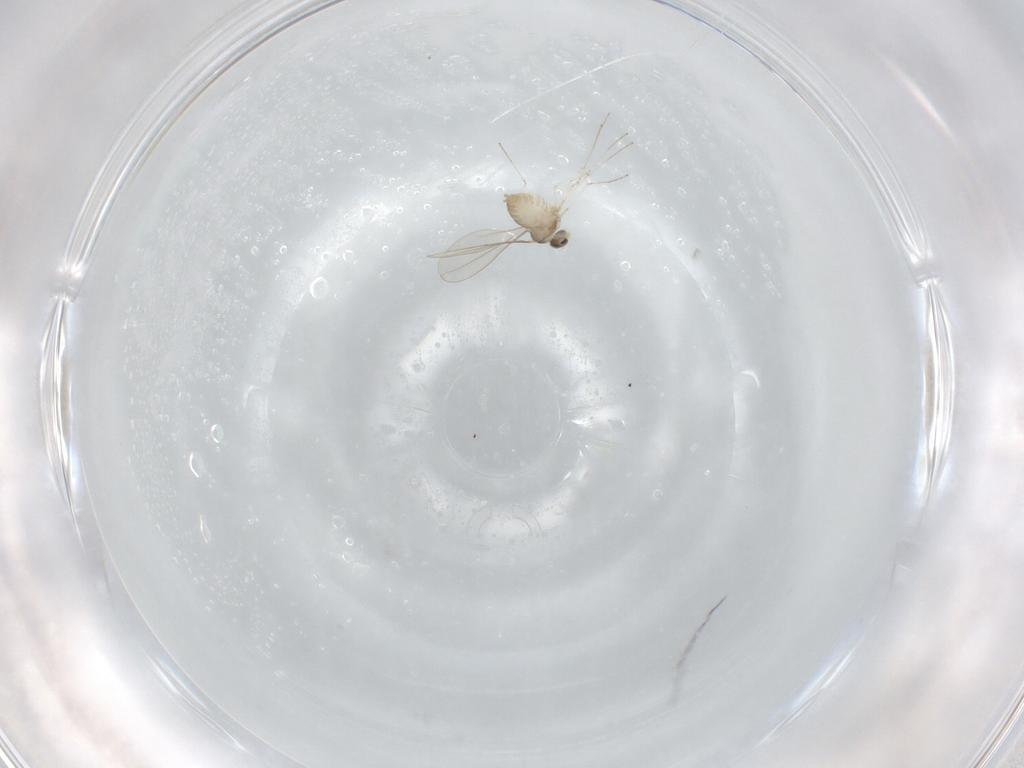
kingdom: Animalia
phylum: Arthropoda
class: Insecta
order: Diptera
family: Cecidomyiidae
